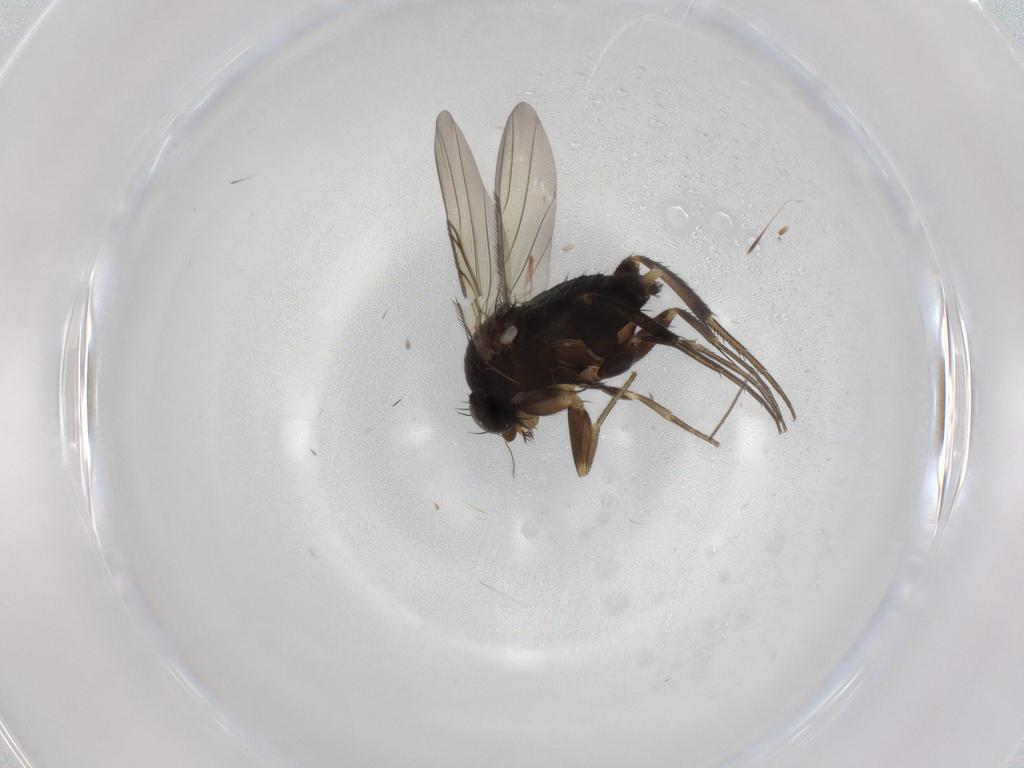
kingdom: Animalia
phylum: Arthropoda
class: Insecta
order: Diptera
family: Phoridae
